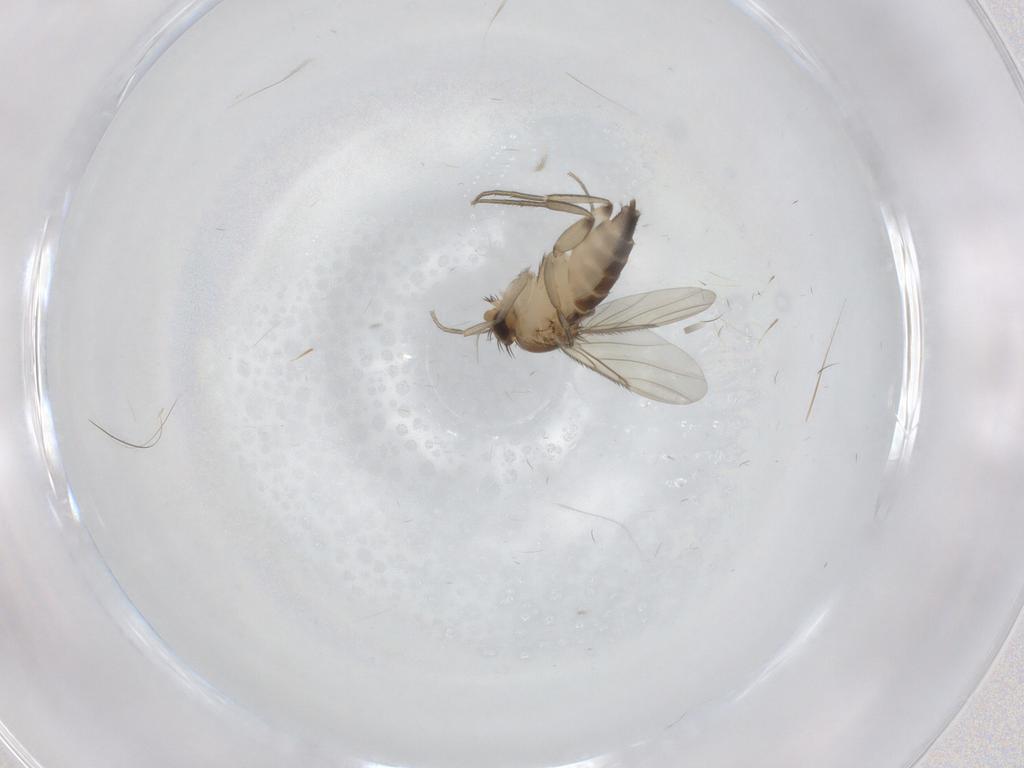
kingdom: Animalia
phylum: Arthropoda
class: Insecta
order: Diptera
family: Phoridae
